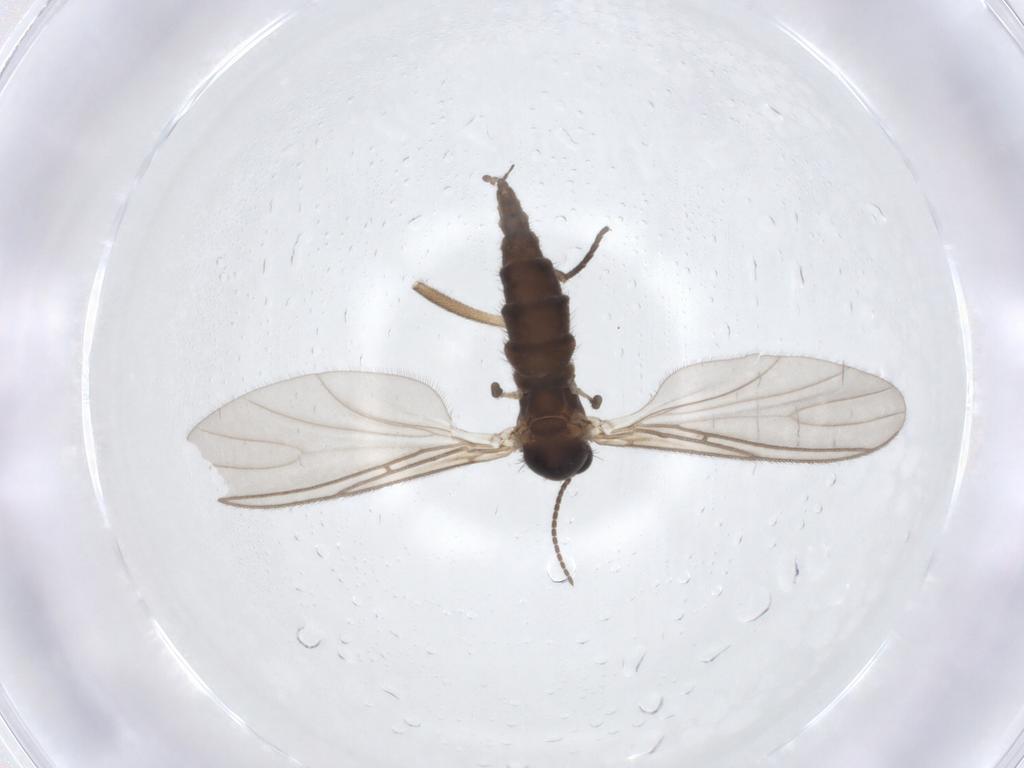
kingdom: Animalia
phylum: Arthropoda
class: Insecta
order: Diptera
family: Sciaridae
